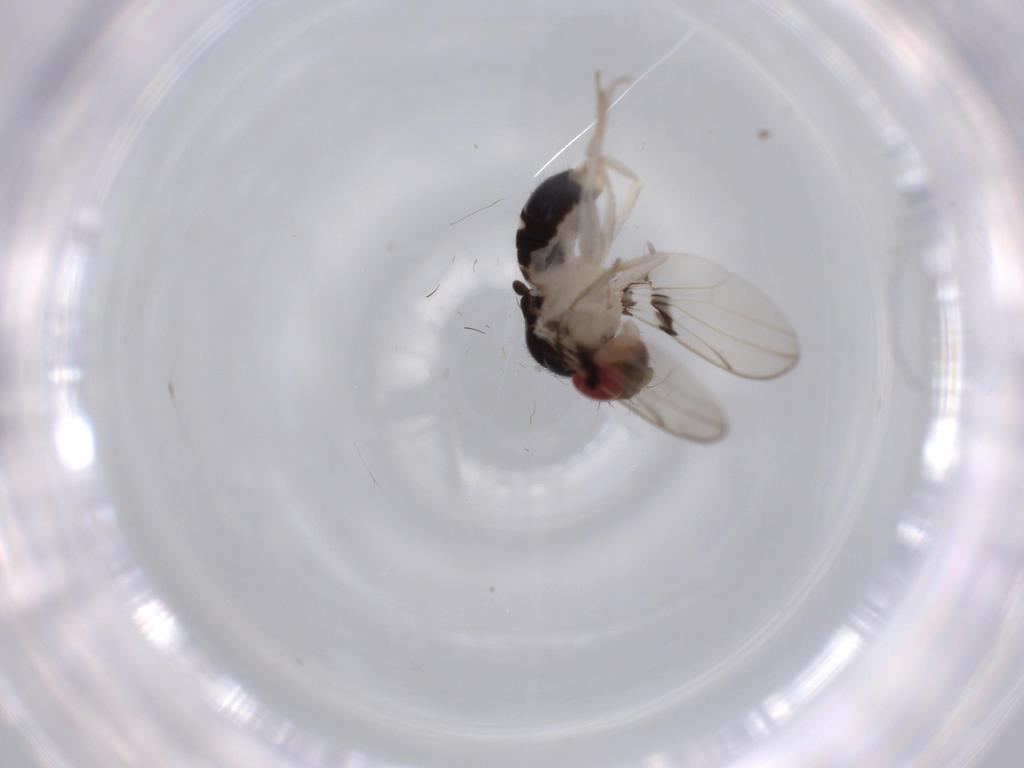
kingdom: Animalia
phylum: Arthropoda
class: Insecta
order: Diptera
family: Drosophilidae
